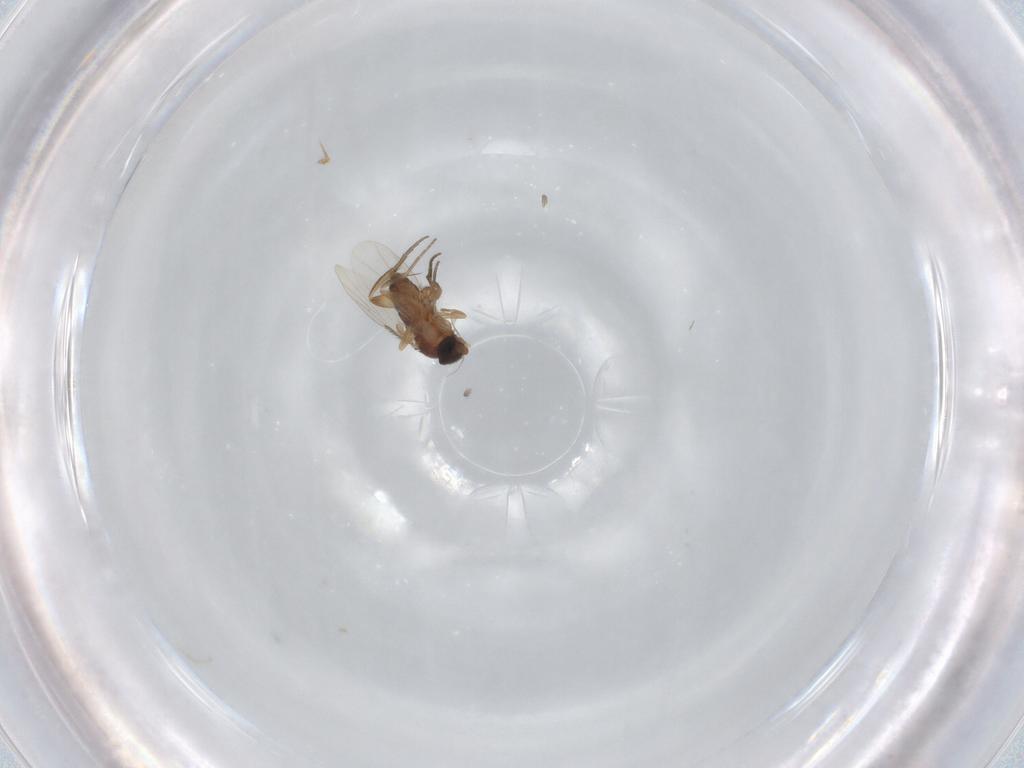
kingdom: Animalia
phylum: Arthropoda
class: Insecta
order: Diptera
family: Phoridae
